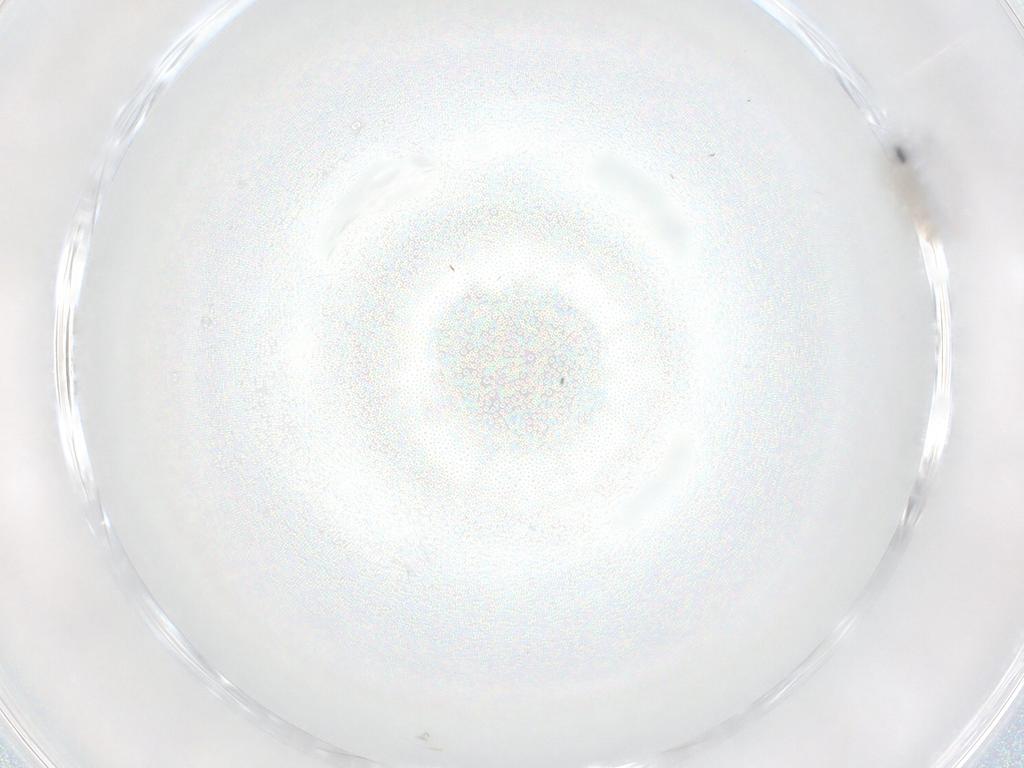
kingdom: Animalia
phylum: Arthropoda
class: Insecta
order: Diptera
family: Cecidomyiidae
